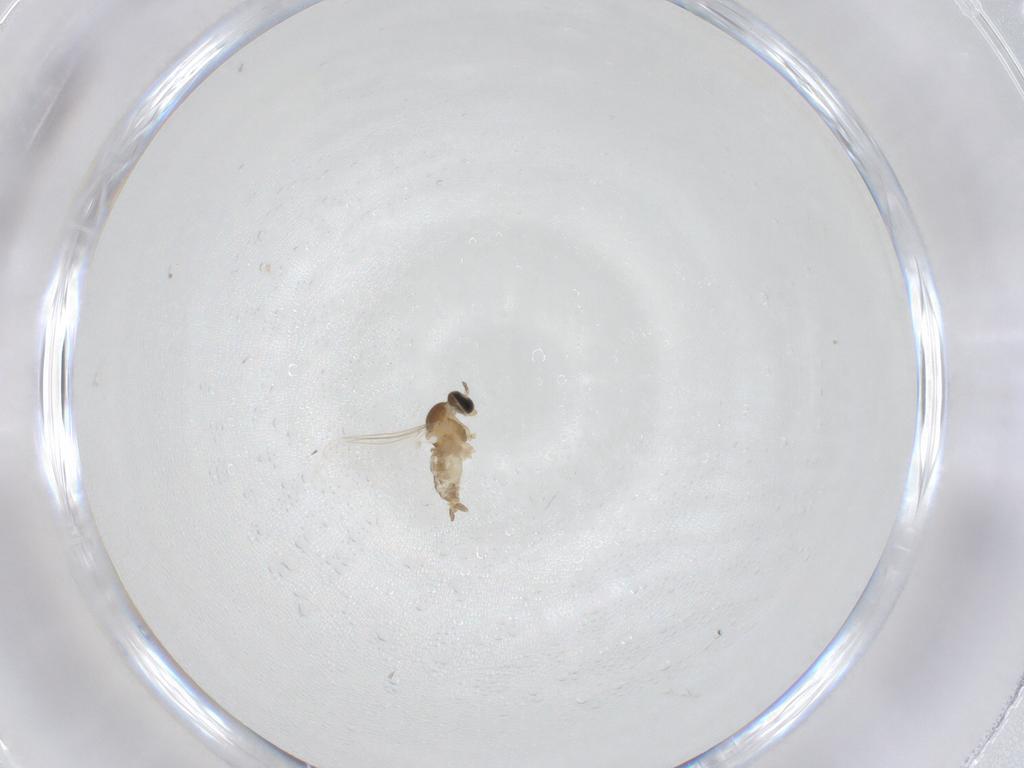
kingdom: Animalia
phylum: Arthropoda
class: Insecta
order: Diptera
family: Cecidomyiidae
